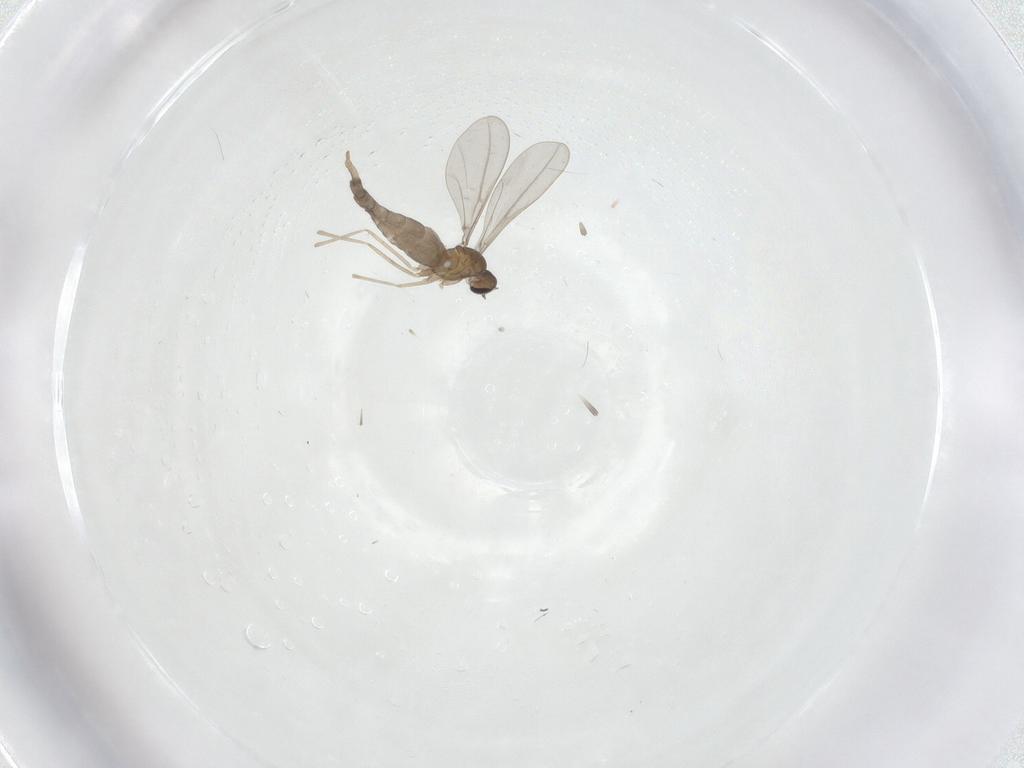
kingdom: Animalia
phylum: Arthropoda
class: Insecta
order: Diptera
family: Cecidomyiidae
